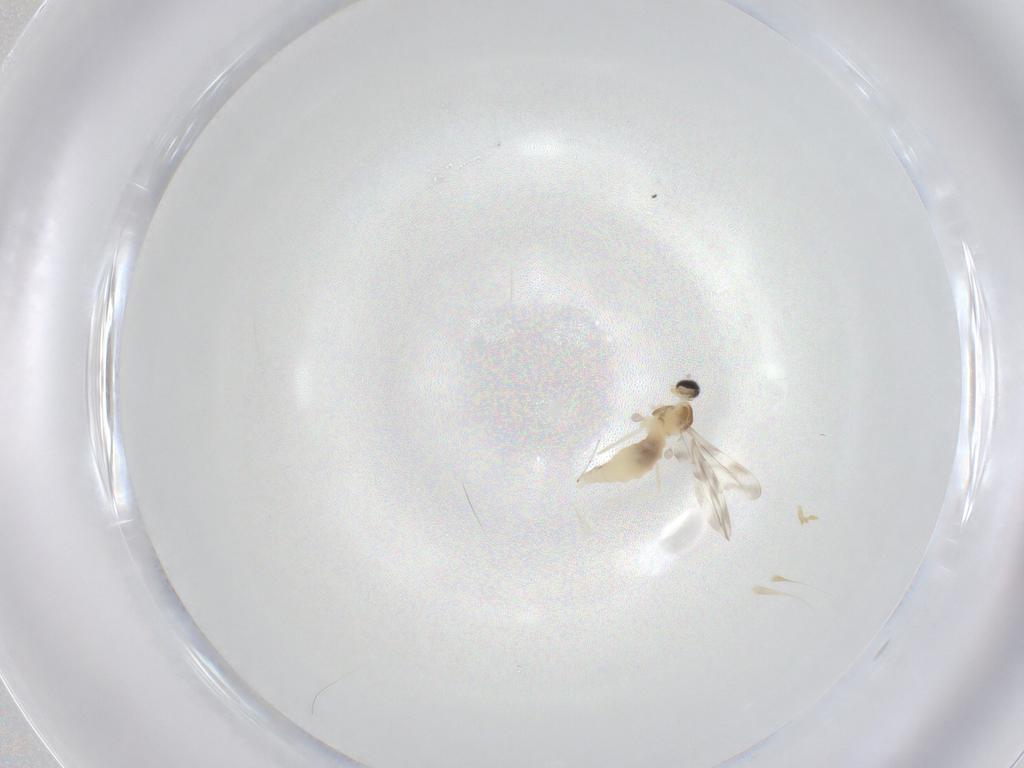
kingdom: Animalia
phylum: Arthropoda
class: Insecta
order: Diptera
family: Cecidomyiidae
